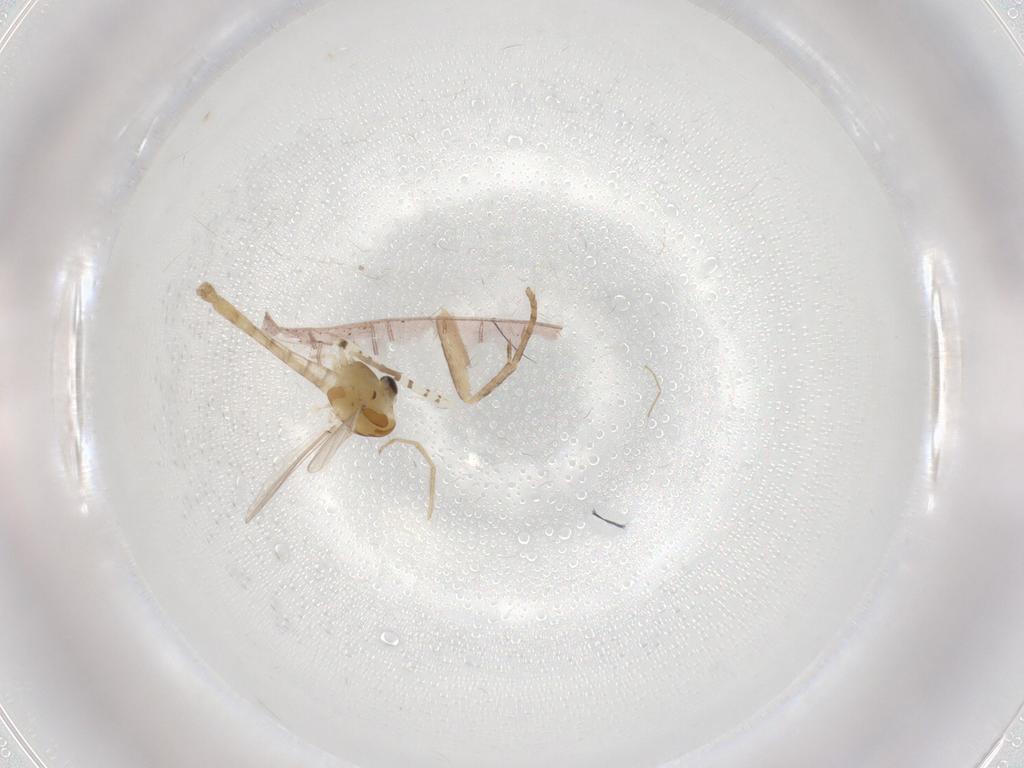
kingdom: Animalia
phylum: Arthropoda
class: Insecta
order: Diptera
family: Chironomidae
